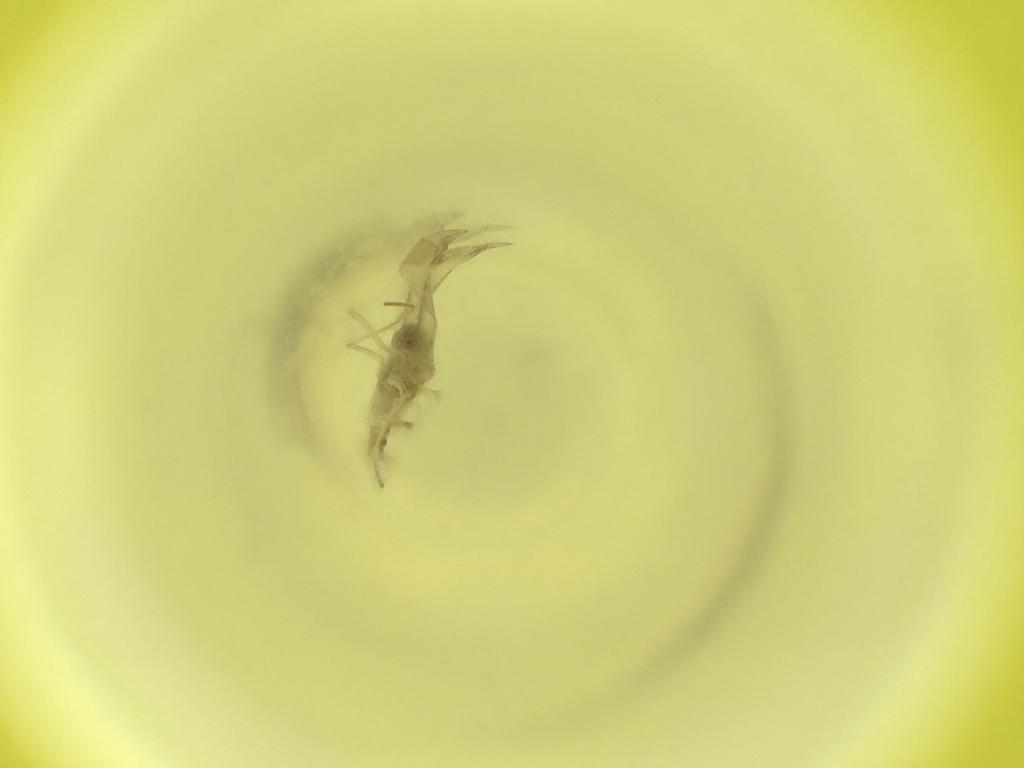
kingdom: Animalia
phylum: Arthropoda
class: Insecta
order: Diptera
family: Cecidomyiidae
